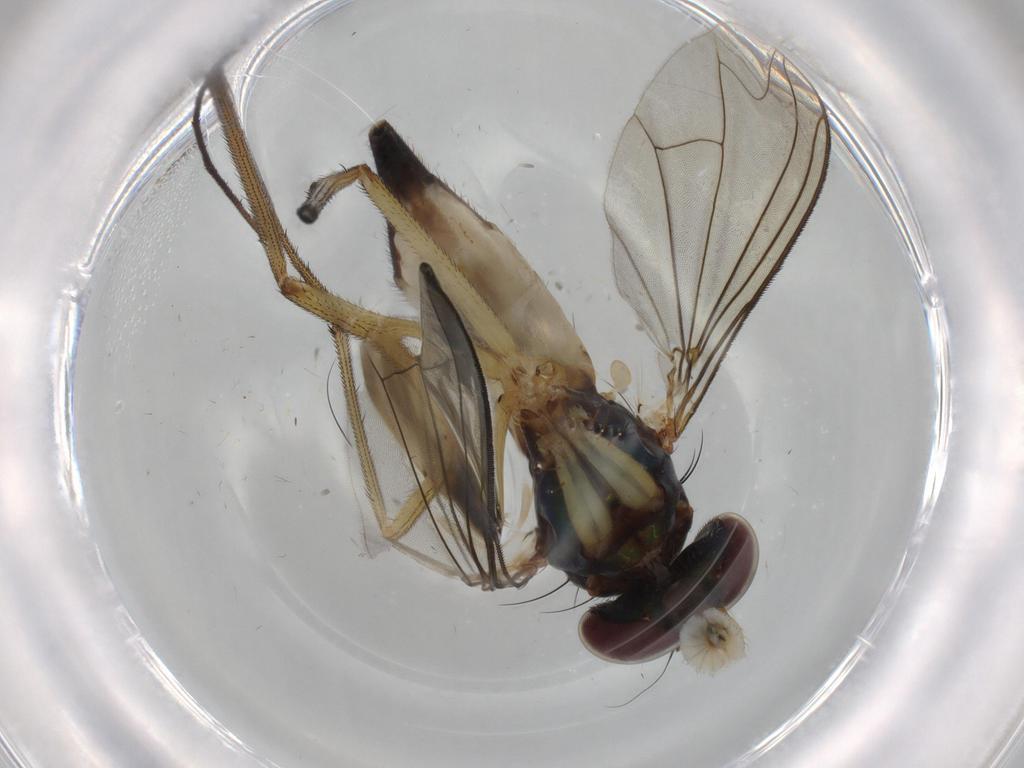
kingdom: Animalia
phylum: Arthropoda
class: Insecta
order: Diptera
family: Dolichopodidae
